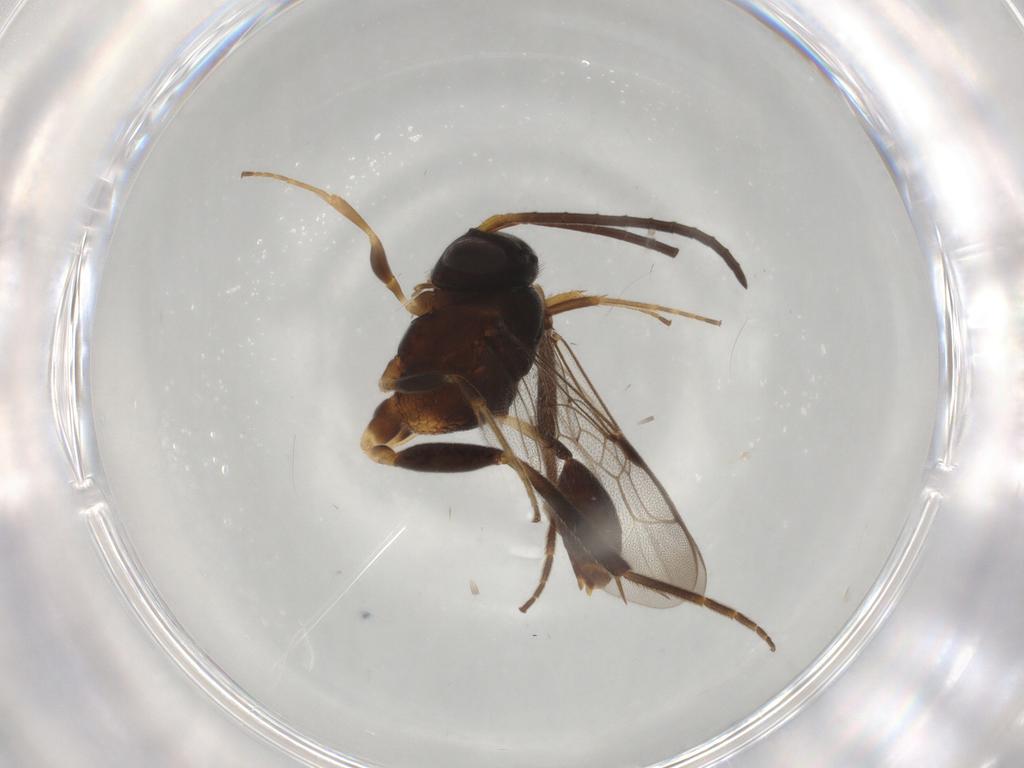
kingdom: Animalia
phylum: Arthropoda
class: Insecta
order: Hymenoptera
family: Evaniidae
